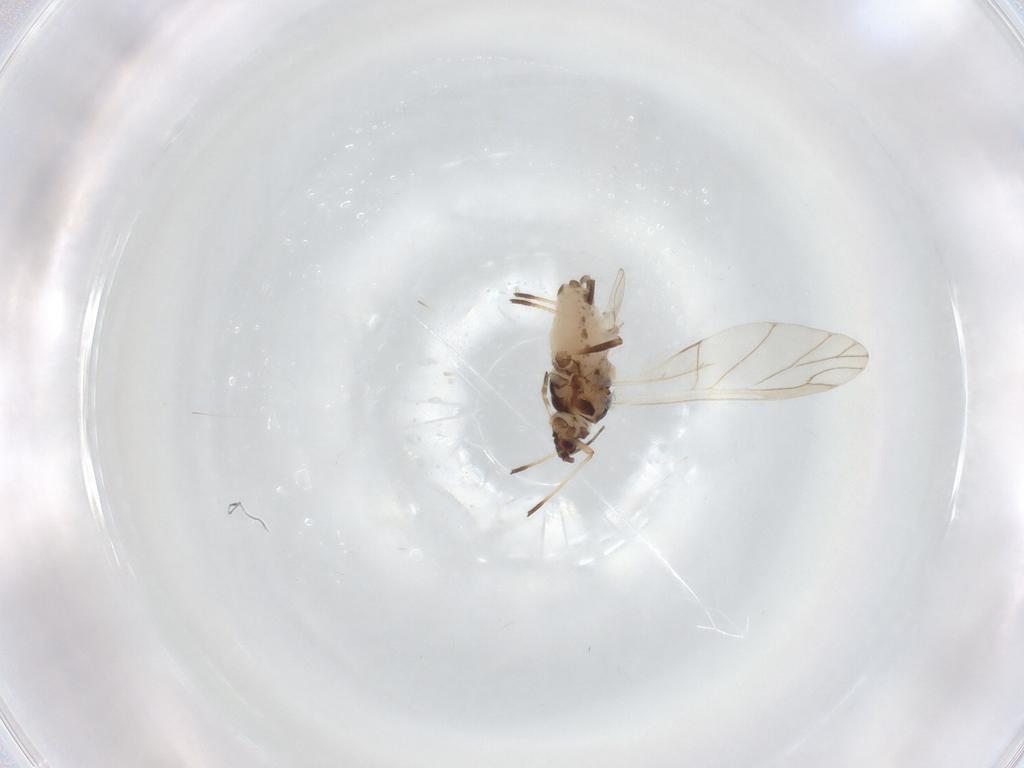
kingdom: Animalia
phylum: Arthropoda
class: Insecta
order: Hemiptera
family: Aphididae
